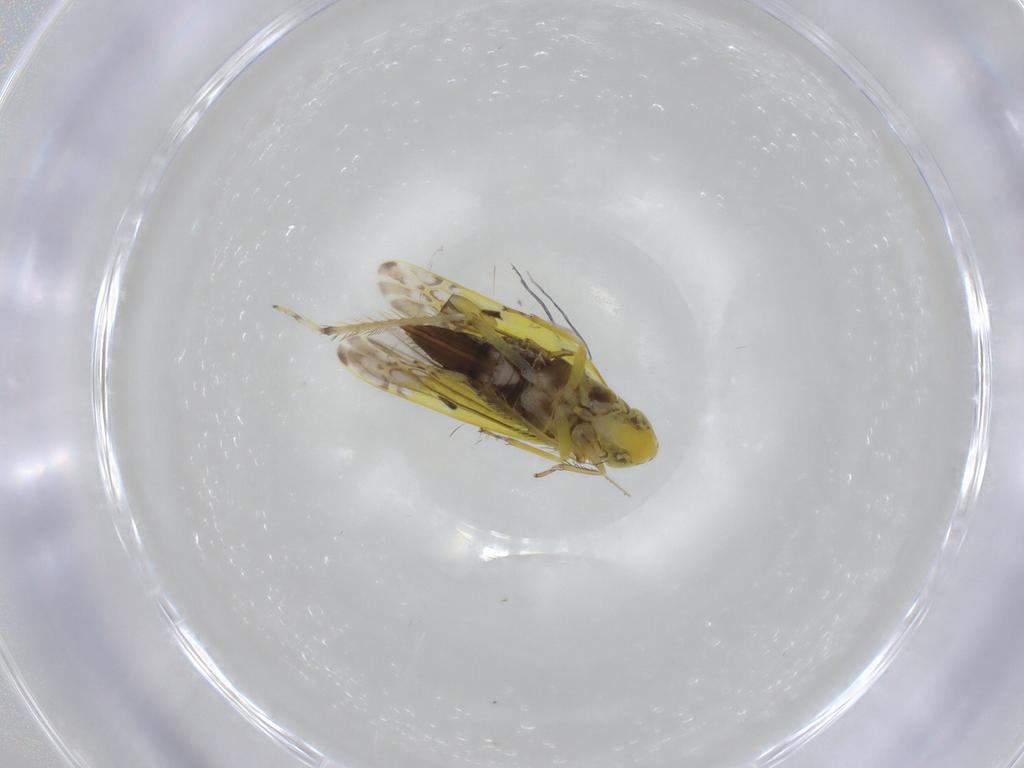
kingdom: Animalia
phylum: Arthropoda
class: Insecta
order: Hemiptera
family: Cicadellidae
